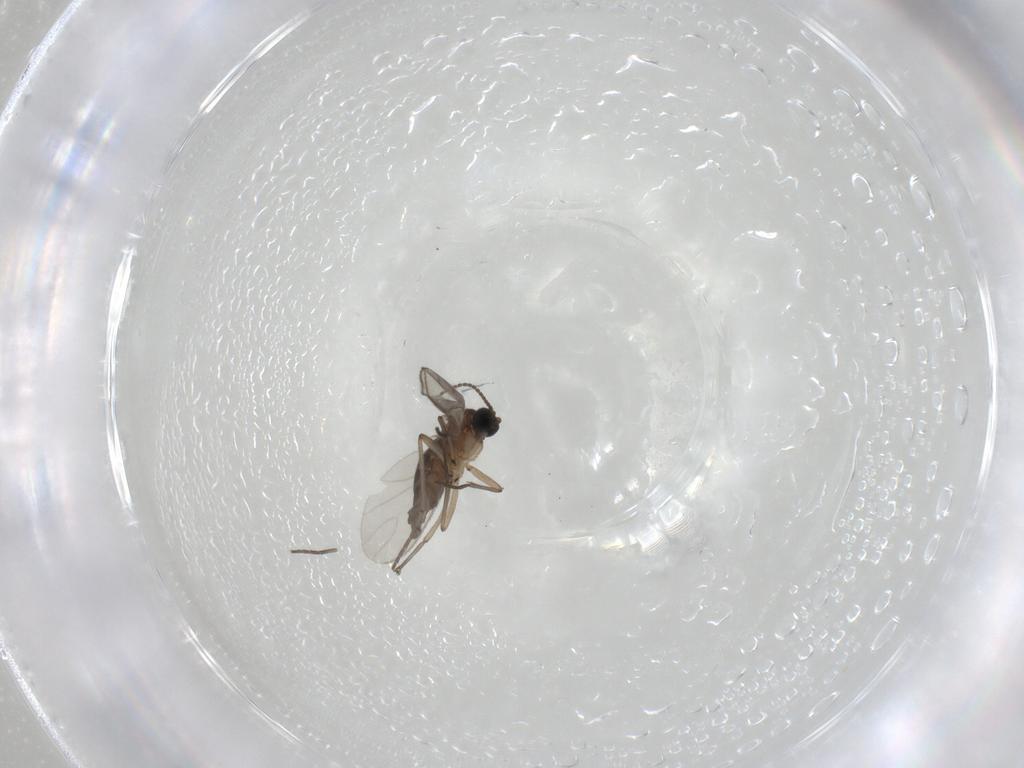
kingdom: Animalia
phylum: Arthropoda
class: Insecta
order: Diptera
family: Sciaridae
